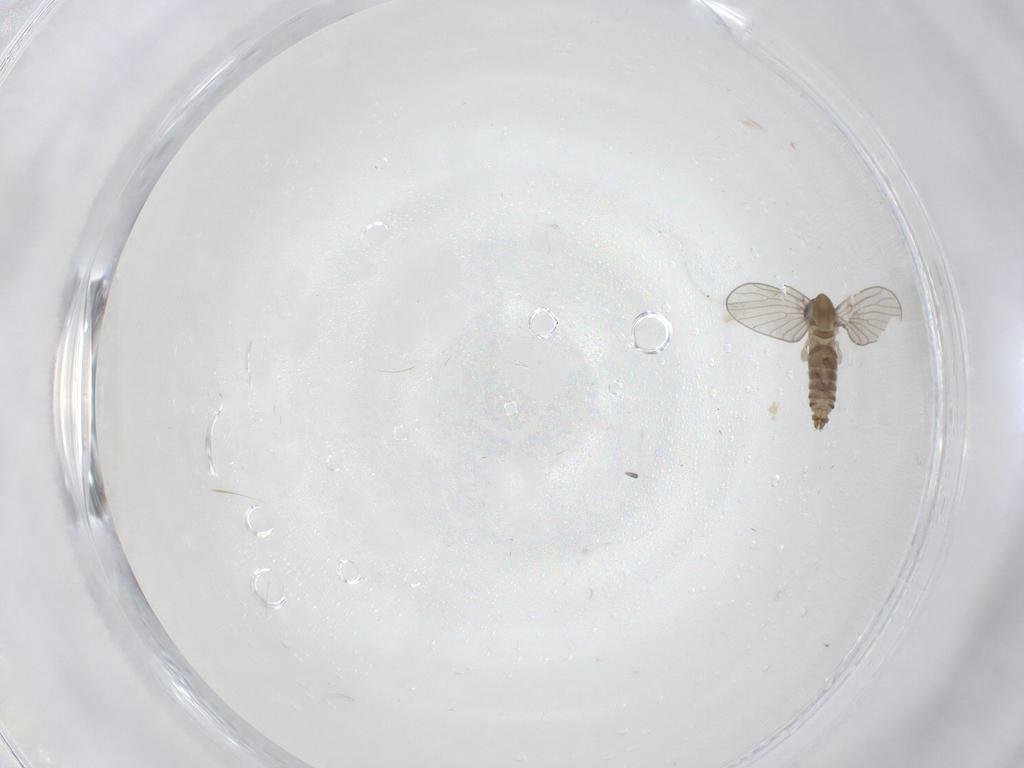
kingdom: Animalia
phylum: Arthropoda
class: Insecta
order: Diptera
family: Psychodidae
